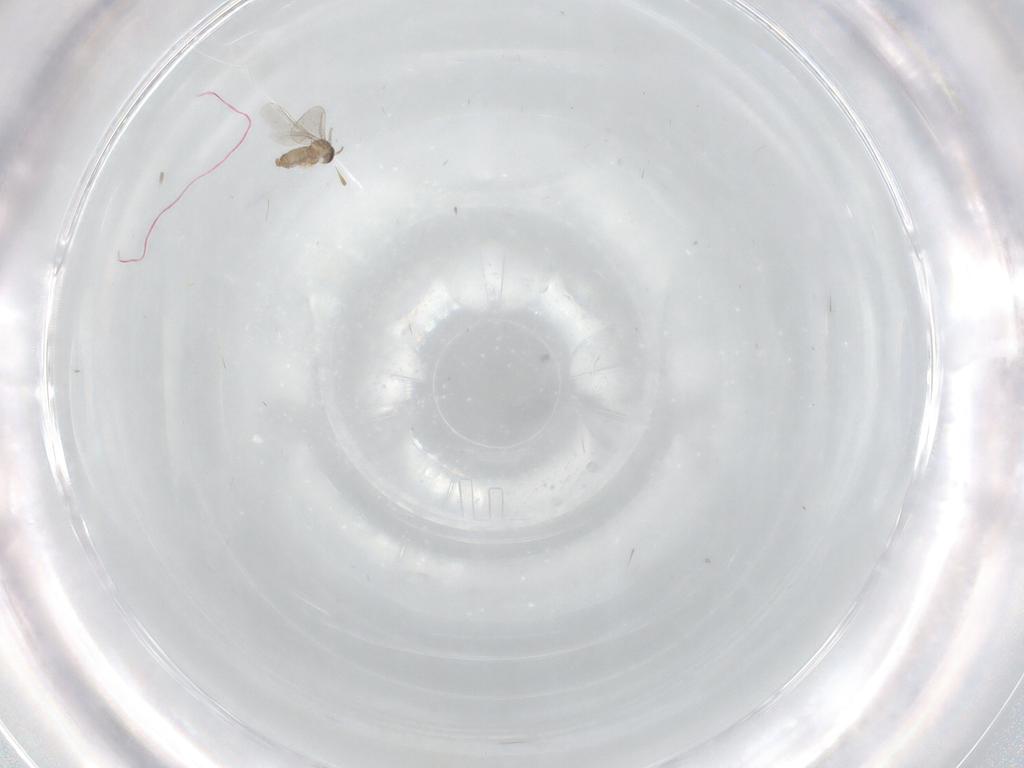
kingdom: Animalia
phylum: Arthropoda
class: Insecta
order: Diptera
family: Cecidomyiidae
